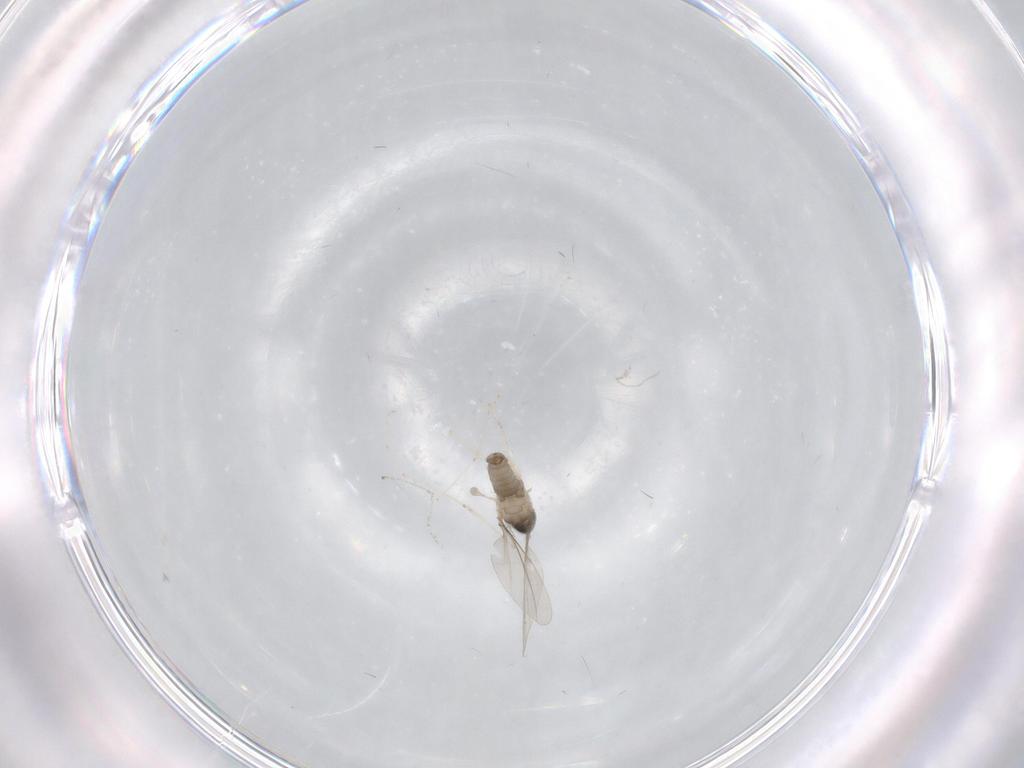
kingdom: Animalia
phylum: Arthropoda
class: Insecta
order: Diptera
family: Cecidomyiidae
